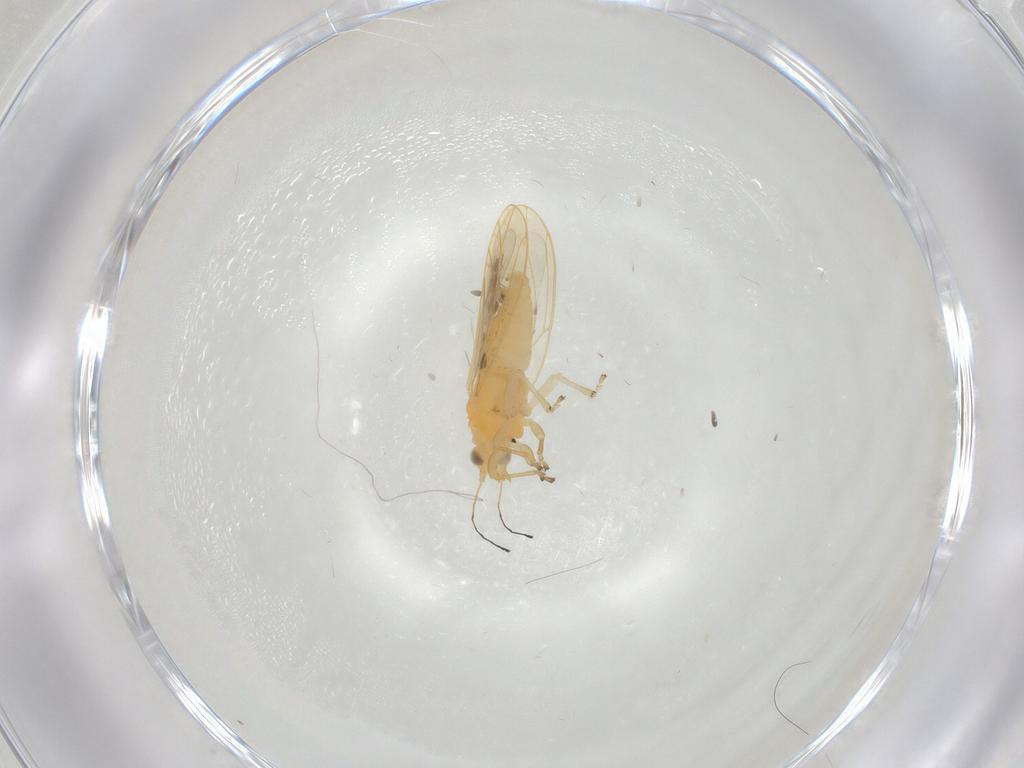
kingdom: Animalia
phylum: Arthropoda
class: Insecta
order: Hemiptera
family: Triozidae
